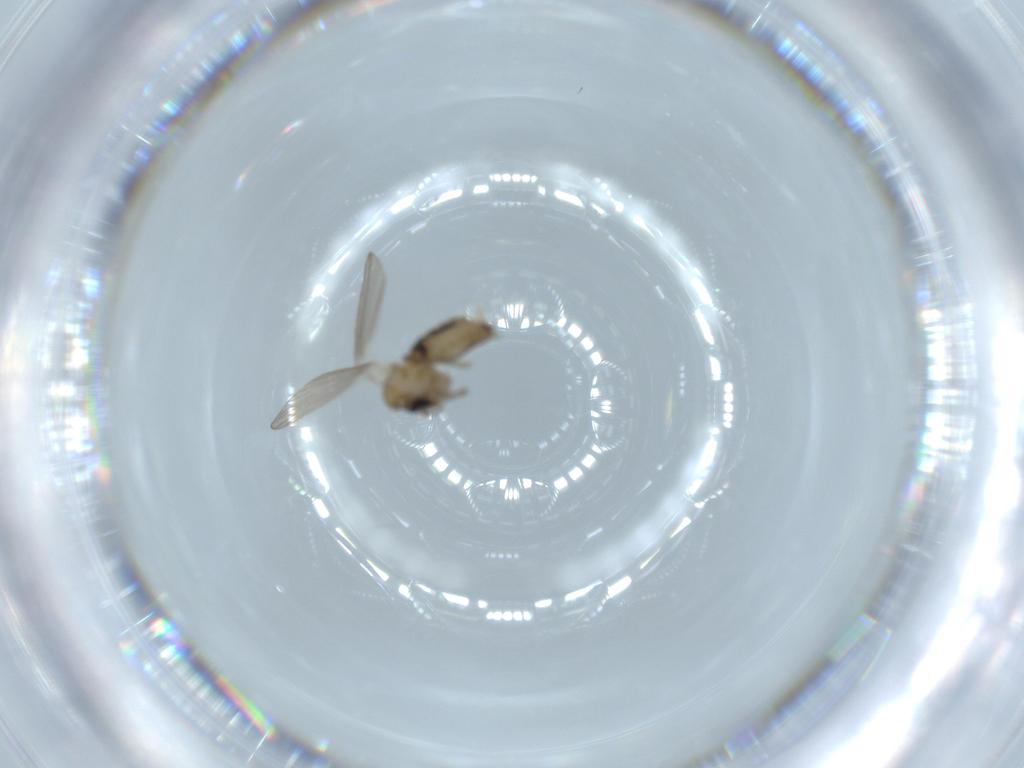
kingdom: Animalia
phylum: Arthropoda
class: Insecta
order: Diptera
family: Psychodidae
